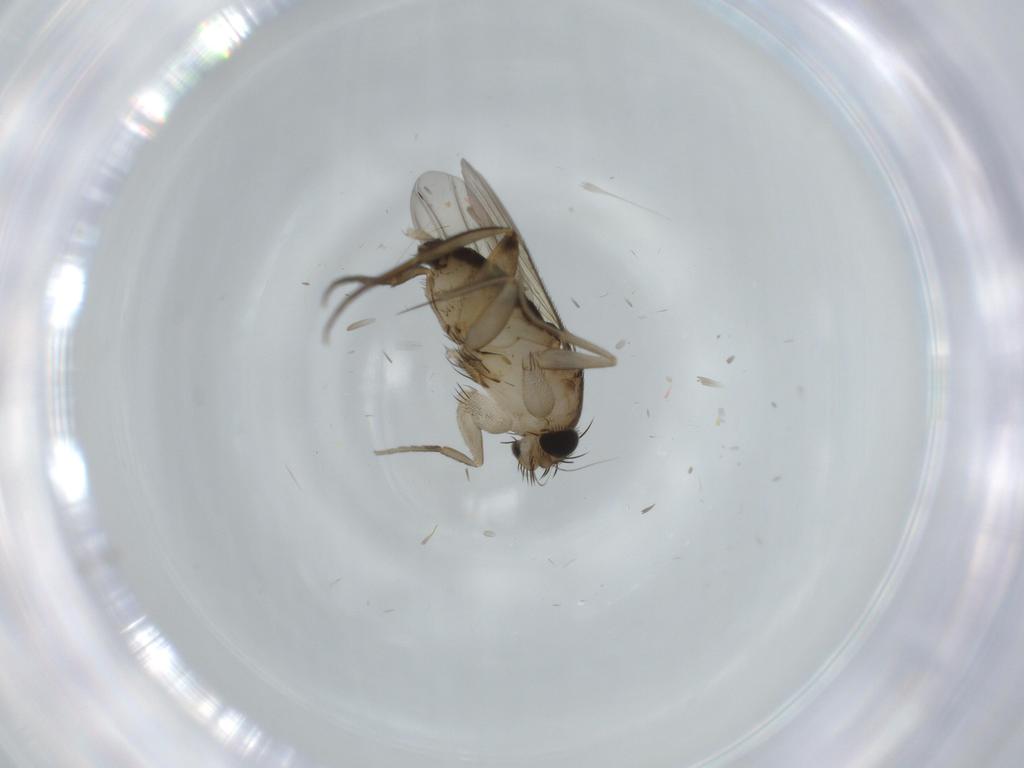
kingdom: Animalia
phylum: Arthropoda
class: Insecta
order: Diptera
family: Phoridae
